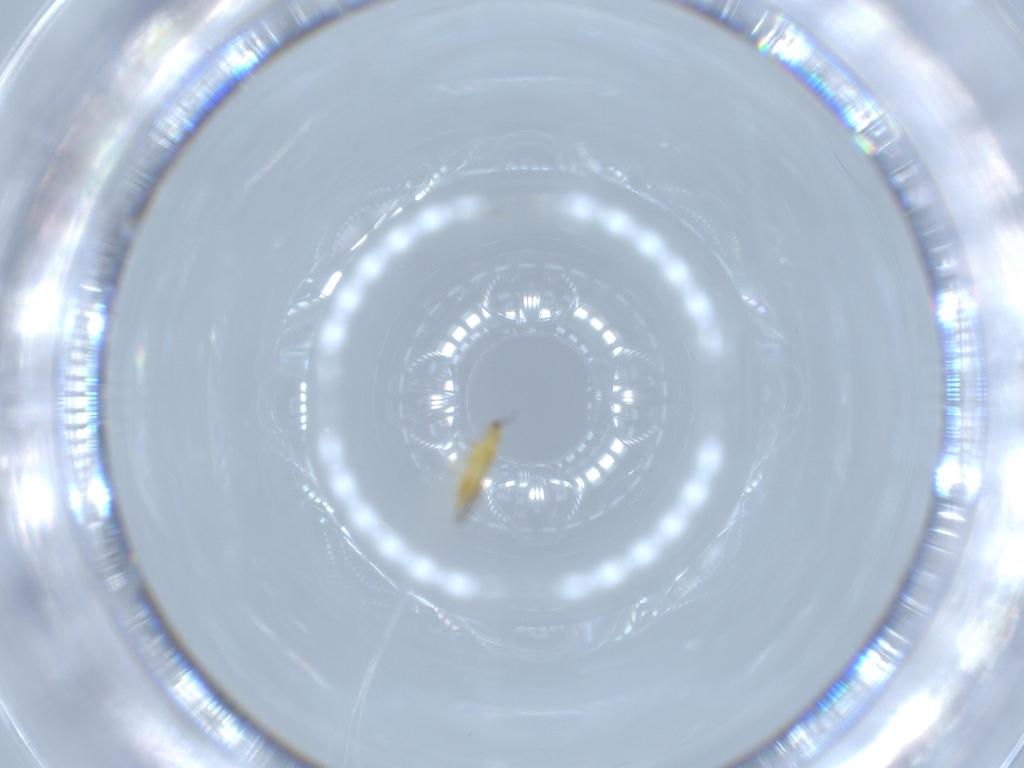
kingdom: Animalia
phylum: Arthropoda
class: Insecta
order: Thysanoptera
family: Thripidae
